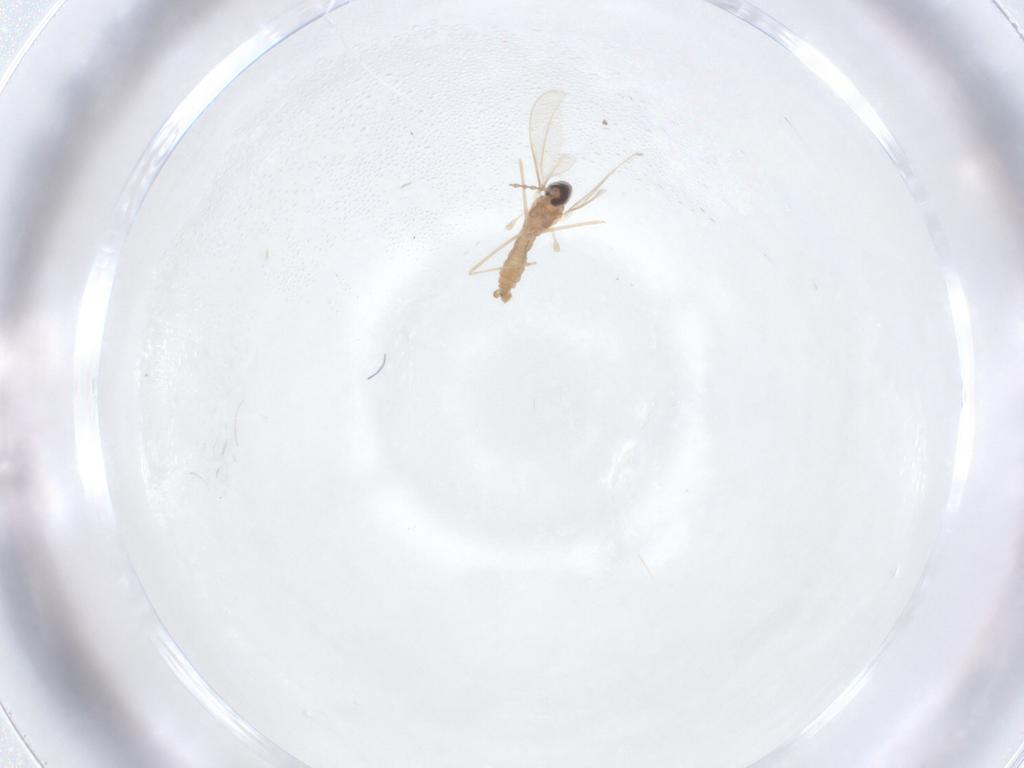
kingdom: Animalia
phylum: Arthropoda
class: Insecta
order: Diptera
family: Cecidomyiidae
